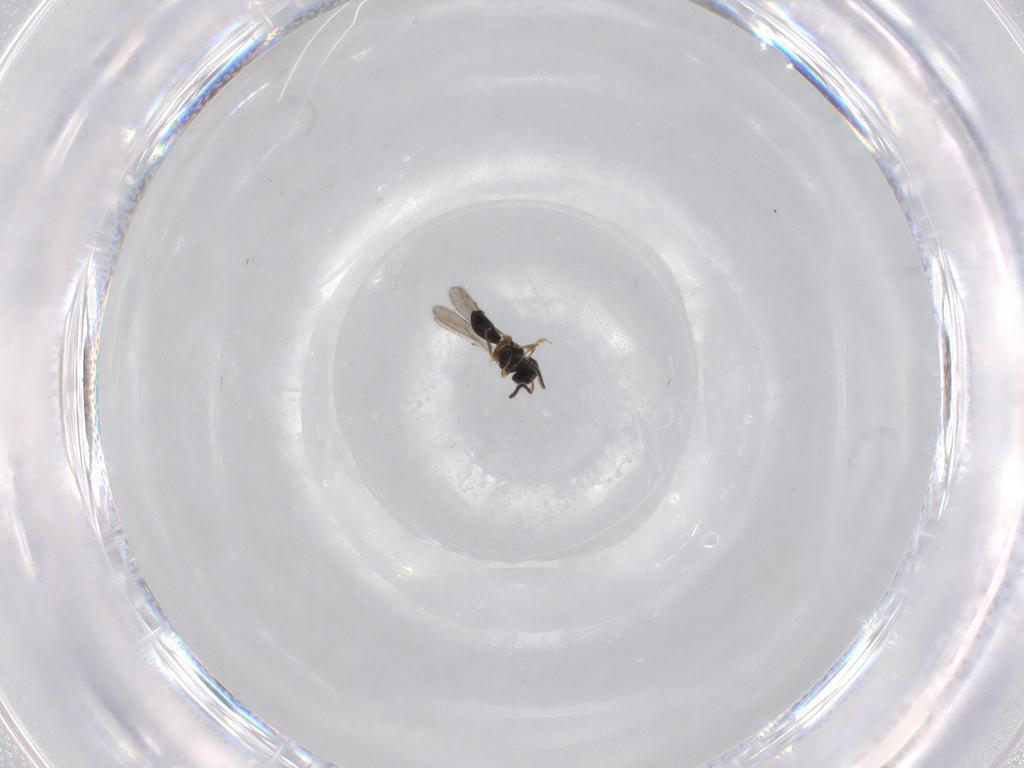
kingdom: Animalia
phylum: Arthropoda
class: Insecta
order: Hymenoptera
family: Scelionidae
